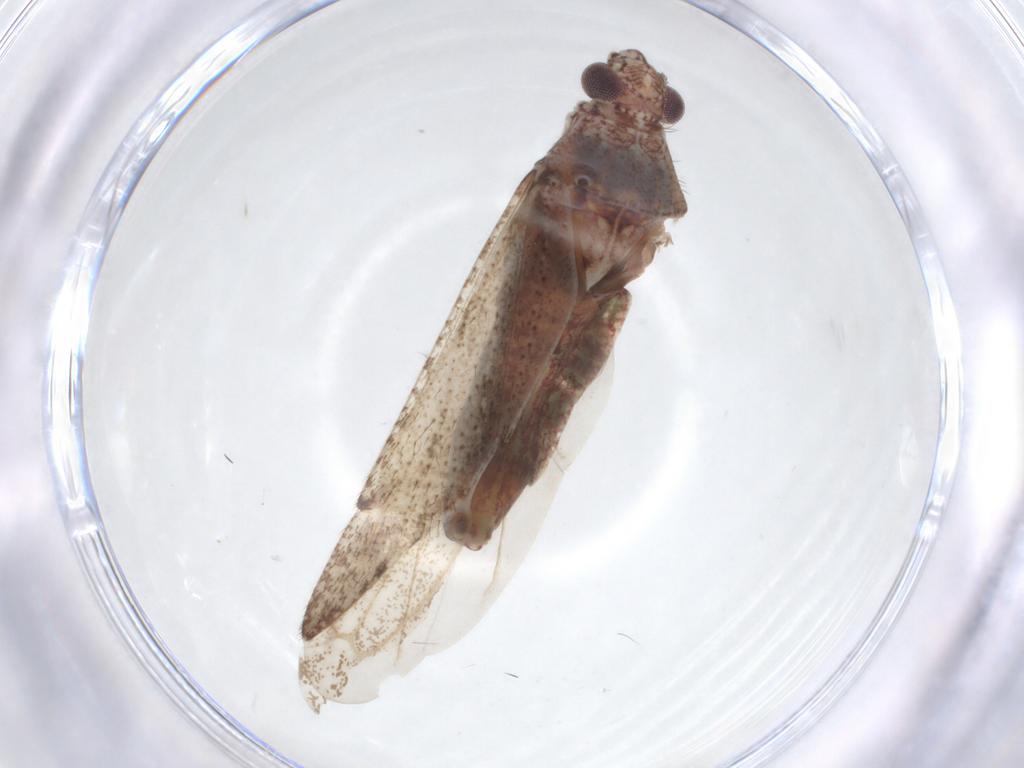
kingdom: Animalia
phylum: Arthropoda
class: Insecta
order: Hemiptera
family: Miridae
